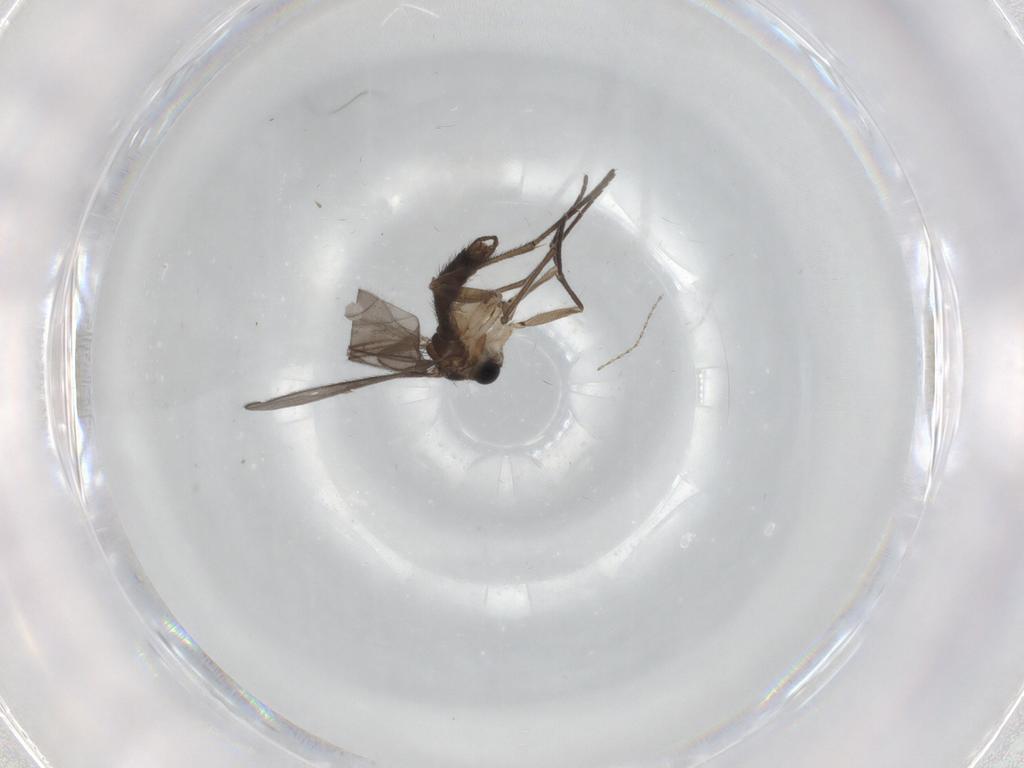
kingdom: Animalia
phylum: Arthropoda
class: Insecta
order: Diptera
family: Sciaridae
